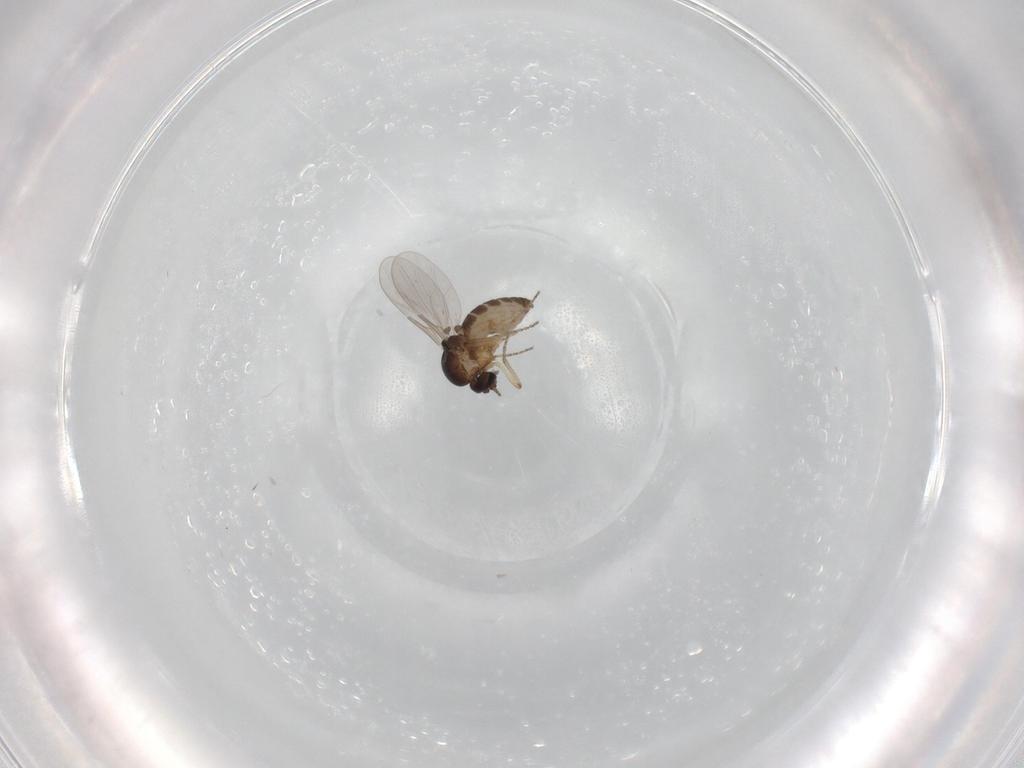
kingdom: Animalia
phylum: Arthropoda
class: Insecta
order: Diptera
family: Ceratopogonidae
